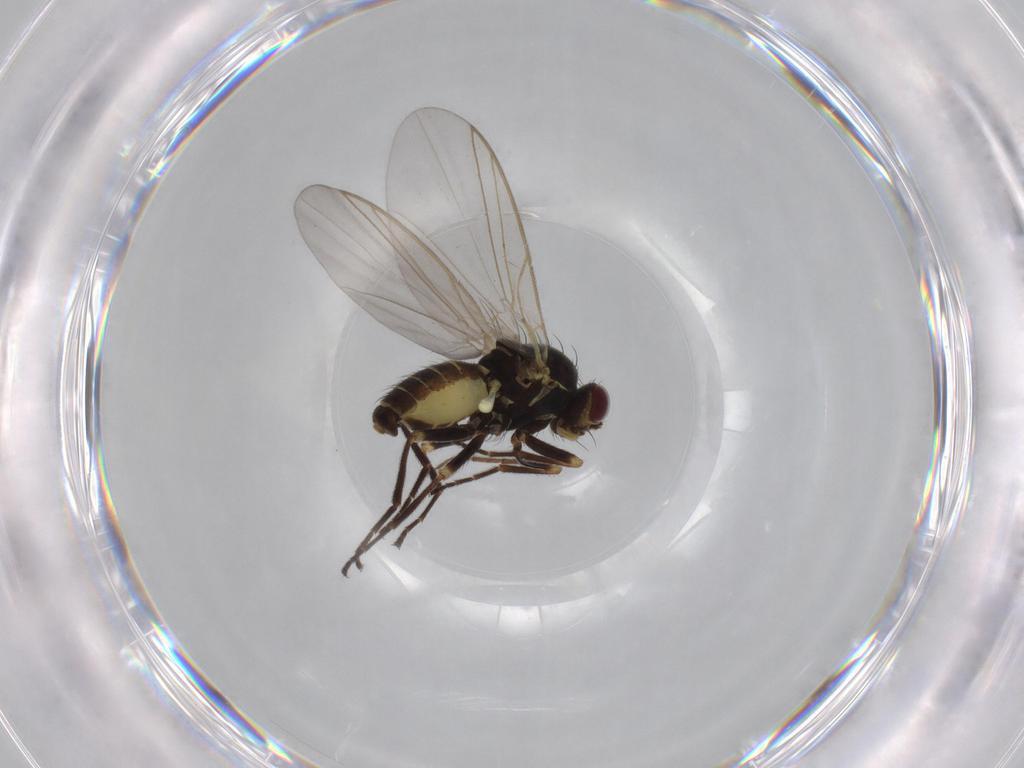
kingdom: Animalia
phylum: Arthropoda
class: Insecta
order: Diptera
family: Chironomidae
